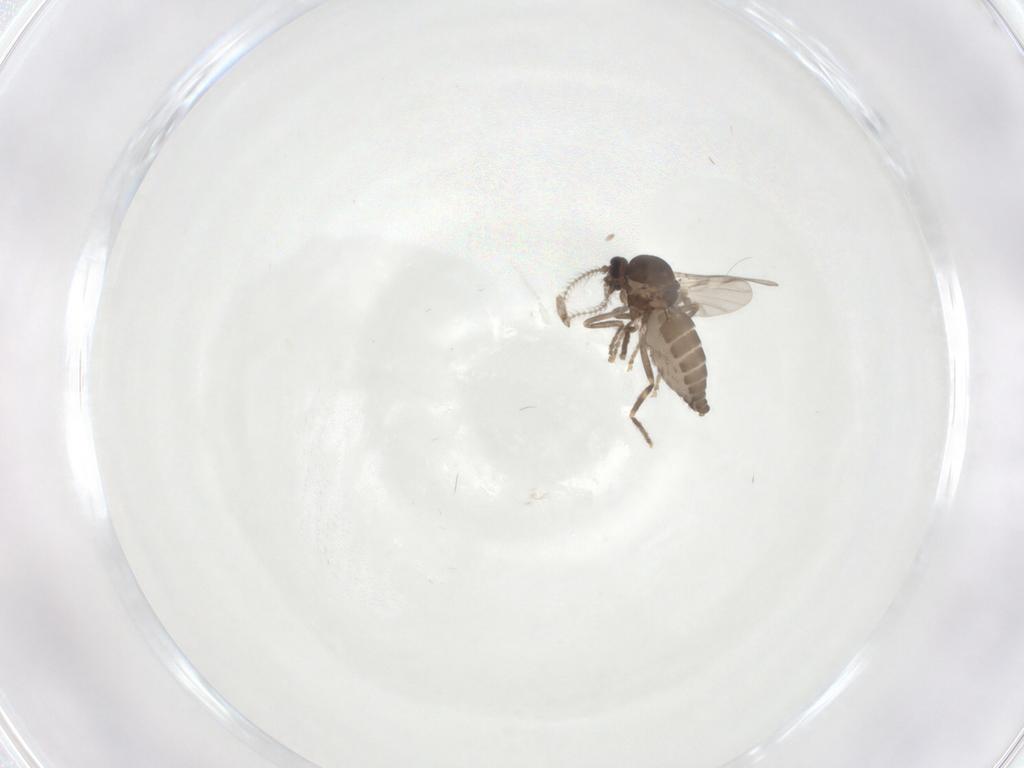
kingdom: Animalia
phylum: Arthropoda
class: Insecta
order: Diptera
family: Ceratopogonidae
